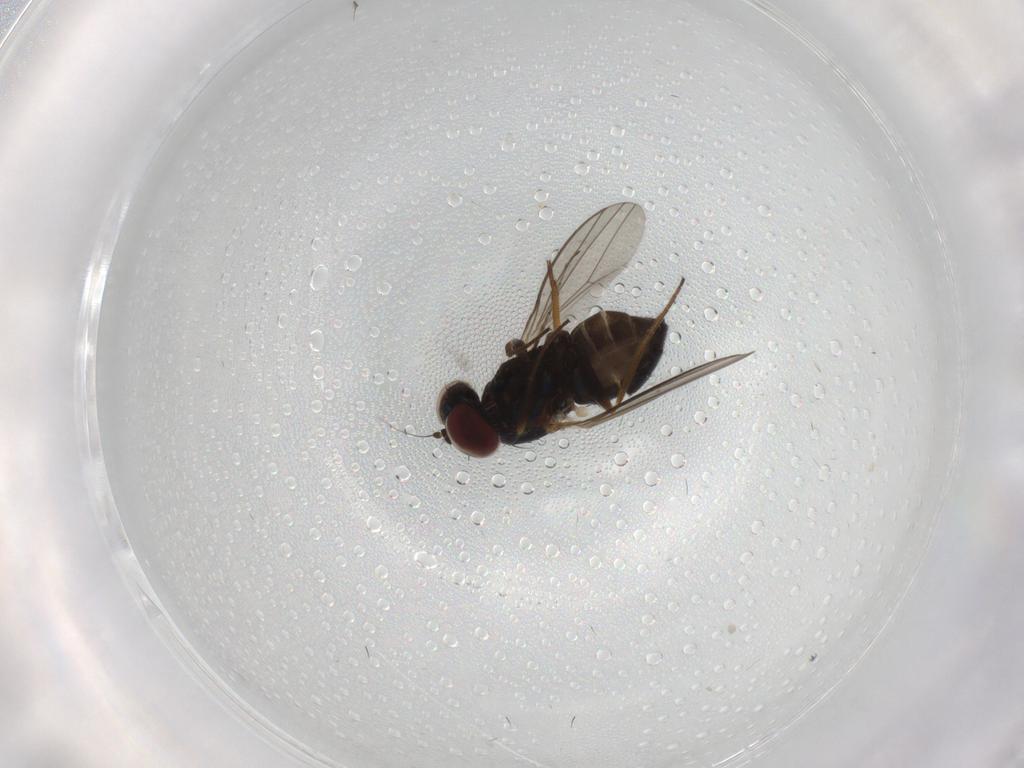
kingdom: Animalia
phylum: Arthropoda
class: Insecta
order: Diptera
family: Dolichopodidae
